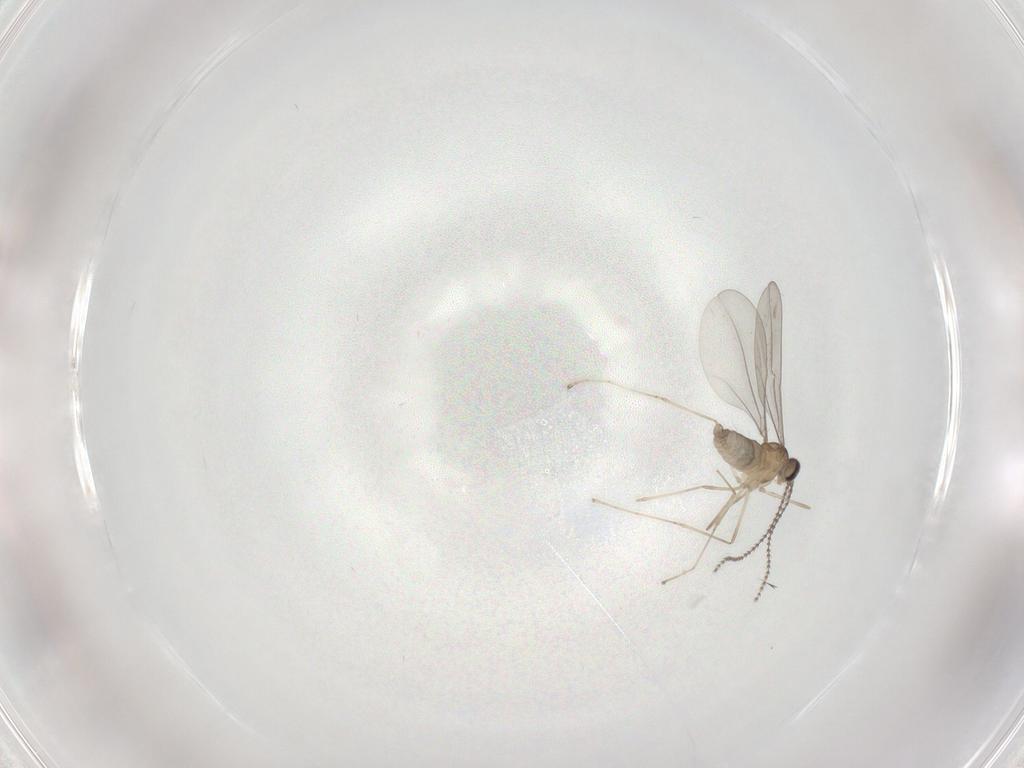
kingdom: Animalia
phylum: Arthropoda
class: Insecta
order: Diptera
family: Cecidomyiidae
